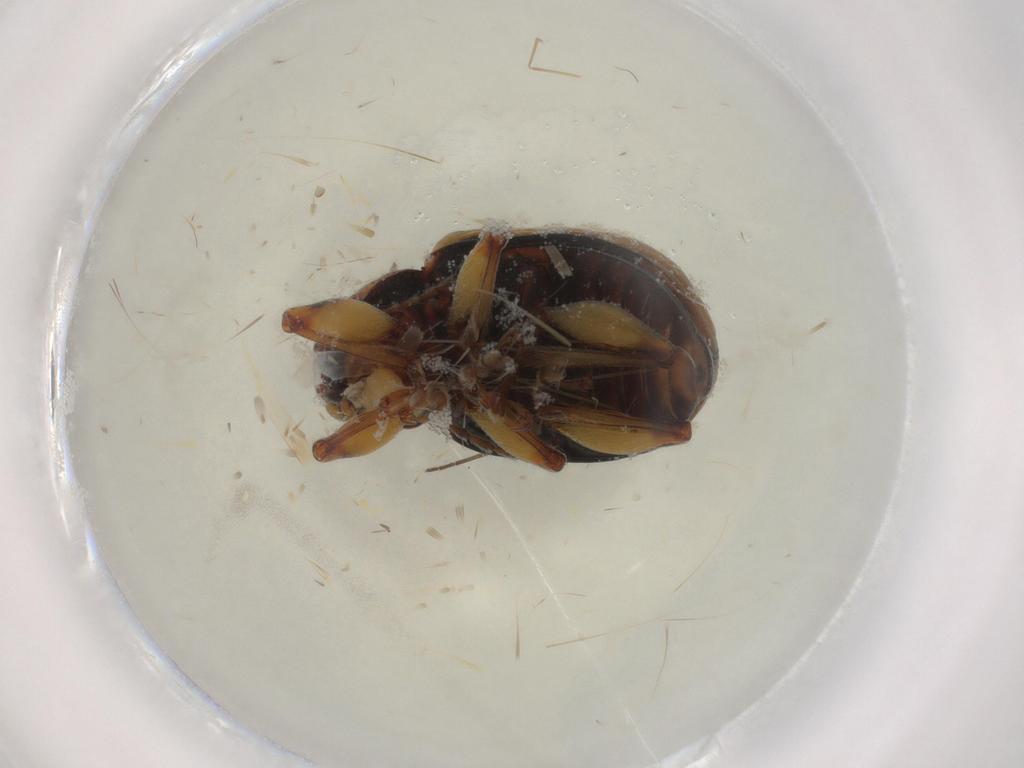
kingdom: Animalia
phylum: Arthropoda
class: Insecta
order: Coleoptera
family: Chrysomelidae
